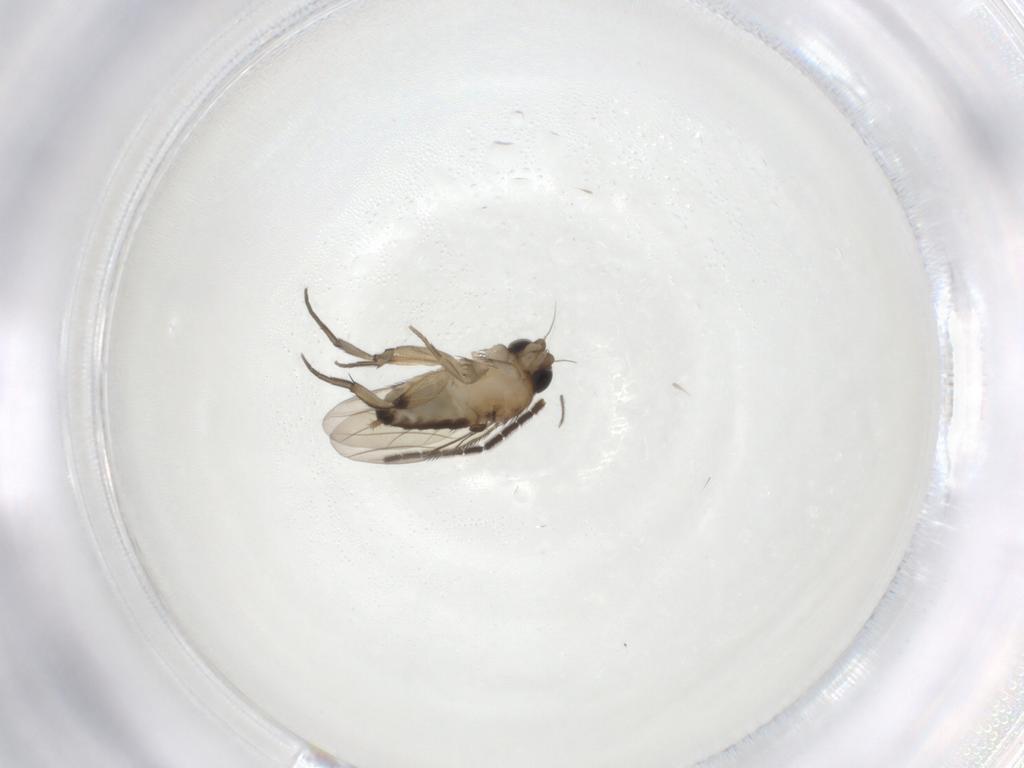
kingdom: Animalia
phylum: Arthropoda
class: Insecta
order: Diptera
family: Phoridae
